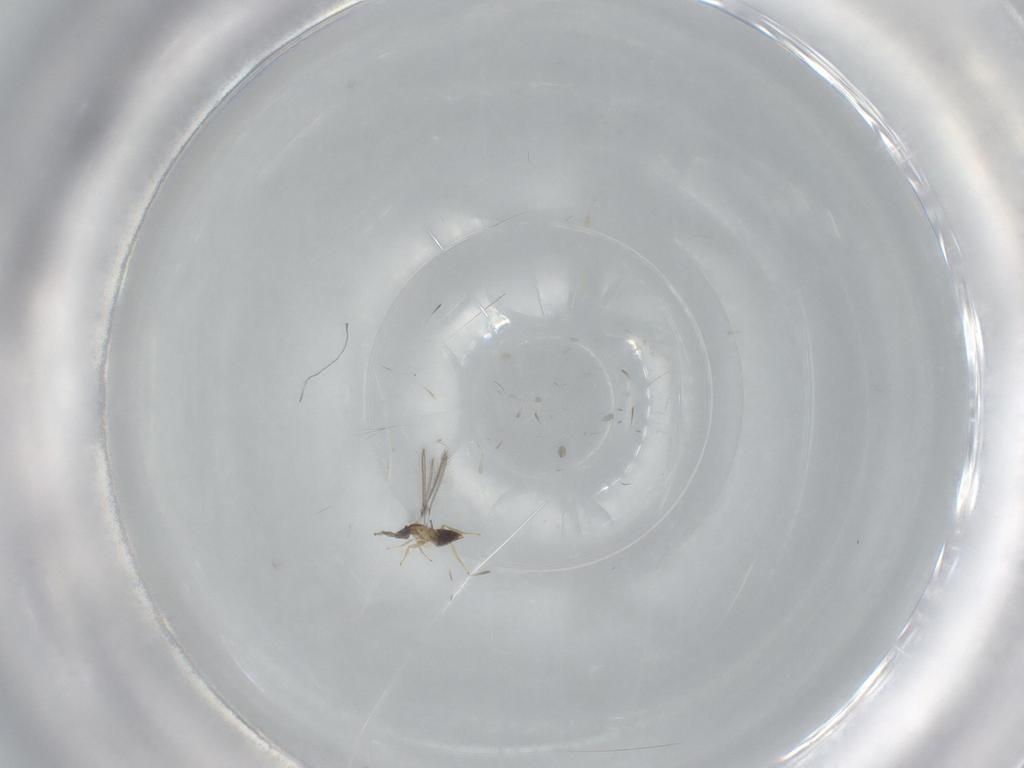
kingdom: Animalia
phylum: Arthropoda
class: Insecta
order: Hymenoptera
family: Mymaridae
